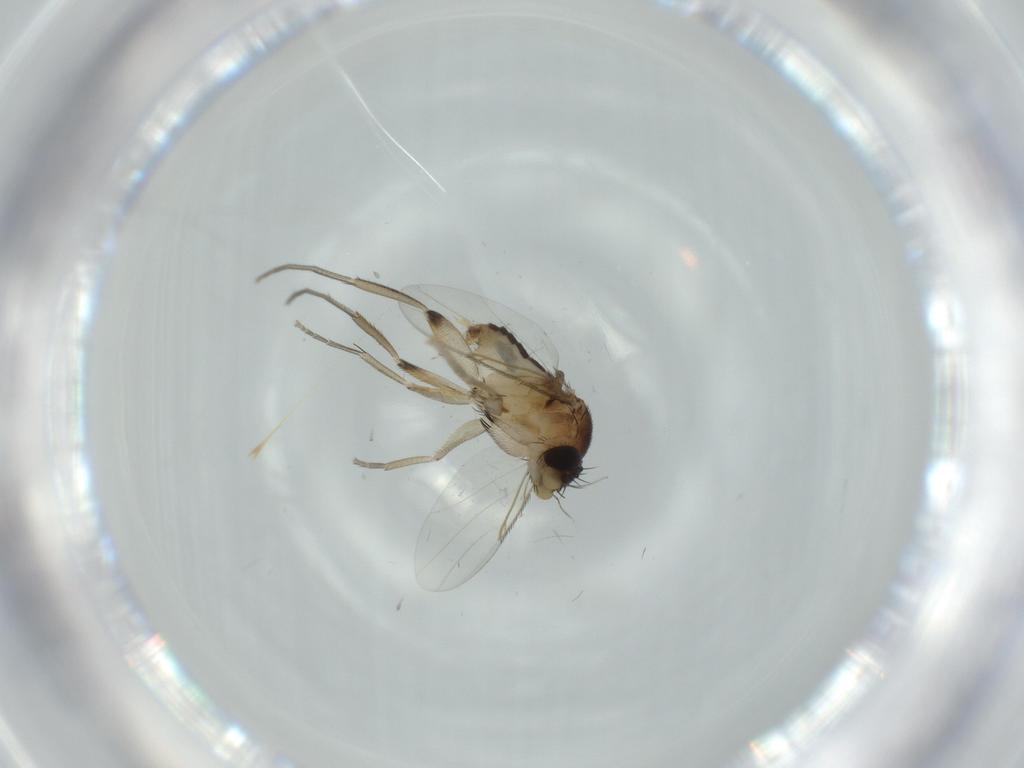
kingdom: Animalia
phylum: Arthropoda
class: Insecta
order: Diptera
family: Phoridae
